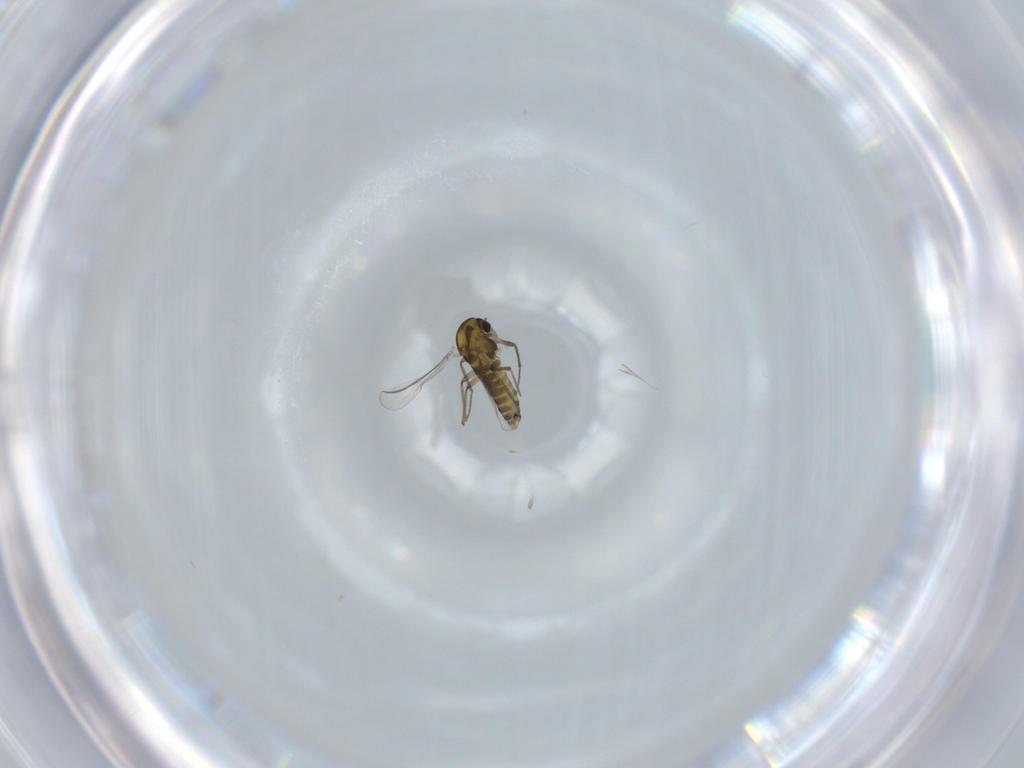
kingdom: Animalia
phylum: Arthropoda
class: Insecta
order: Diptera
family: Chironomidae
